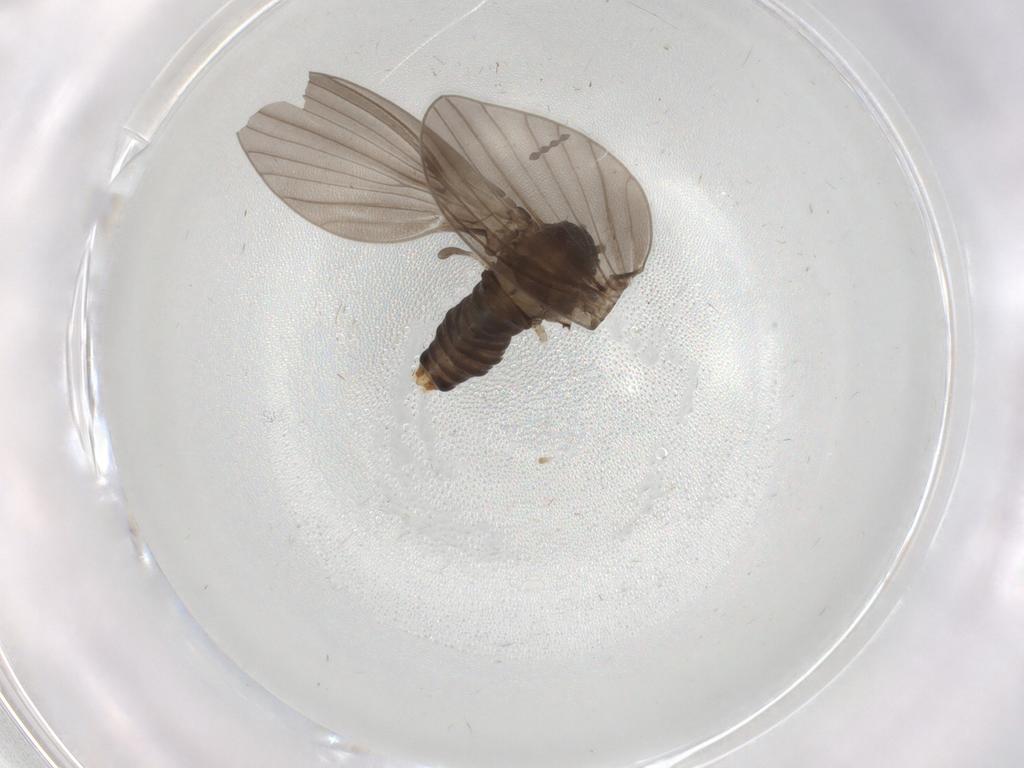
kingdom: Animalia
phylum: Arthropoda
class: Insecta
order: Diptera
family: Psychodidae
